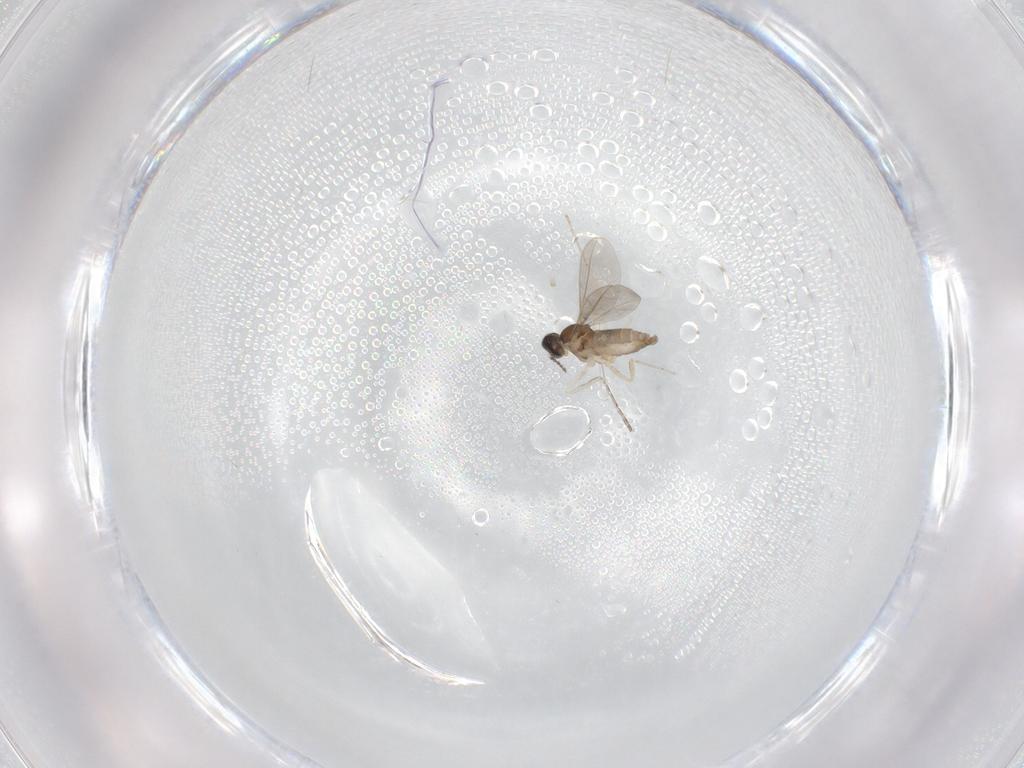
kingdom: Animalia
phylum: Arthropoda
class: Insecta
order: Diptera
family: Cecidomyiidae
